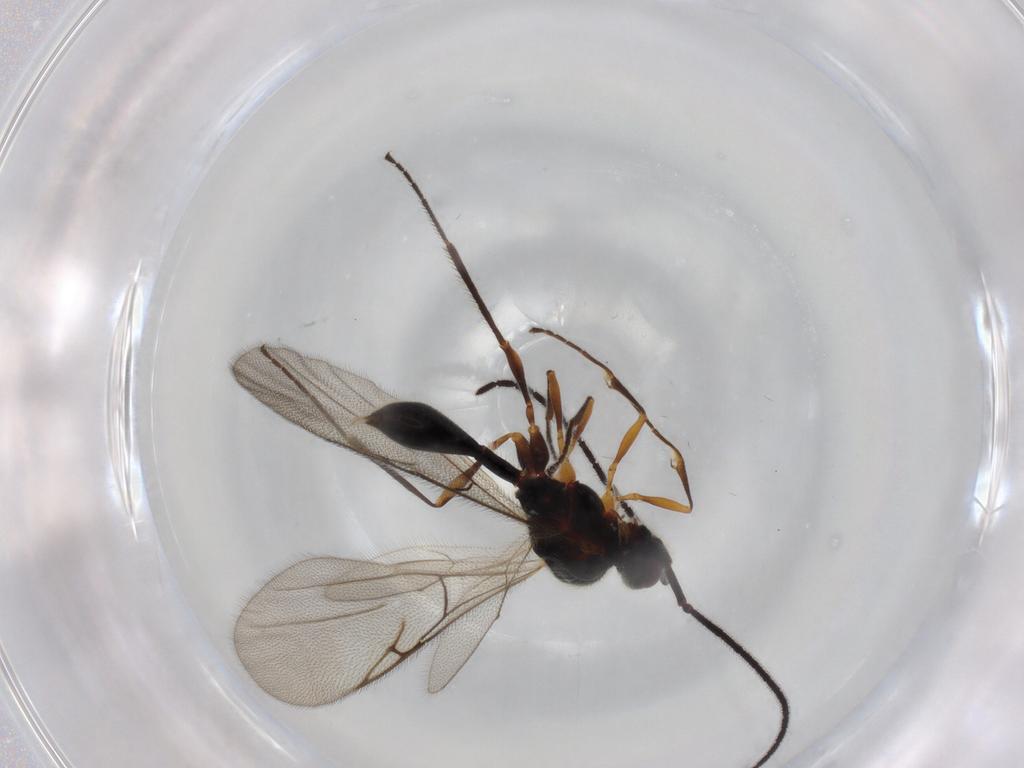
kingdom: Animalia
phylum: Arthropoda
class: Insecta
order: Hymenoptera
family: Diapriidae
